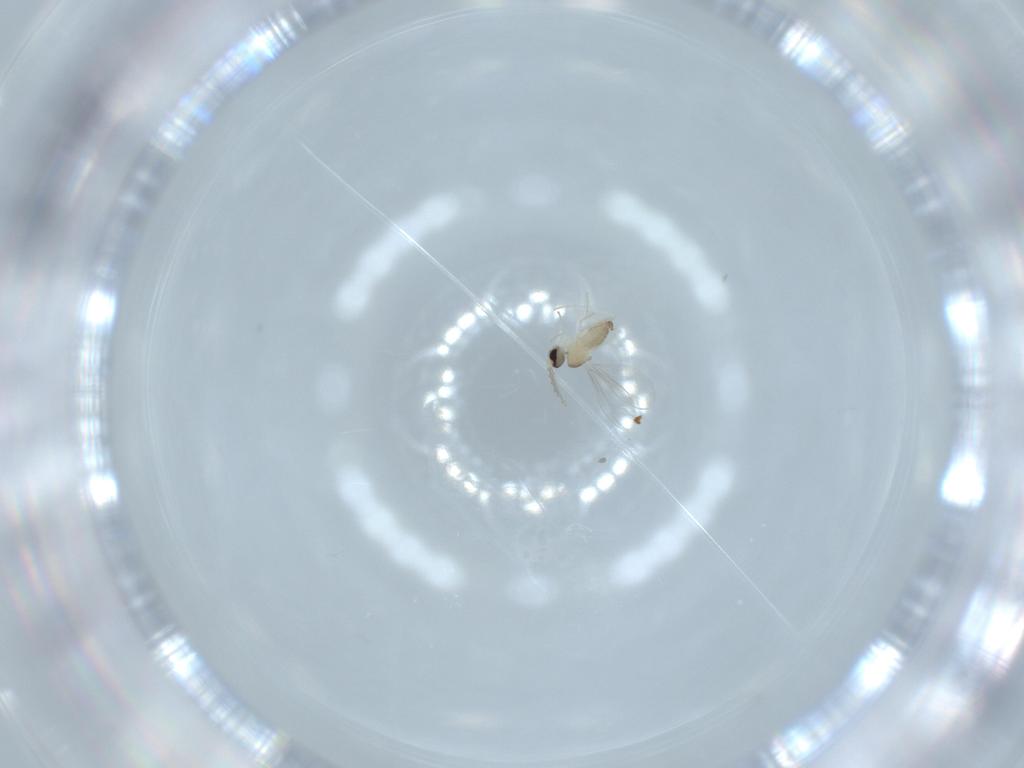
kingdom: Animalia
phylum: Arthropoda
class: Insecta
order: Diptera
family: Cecidomyiidae
